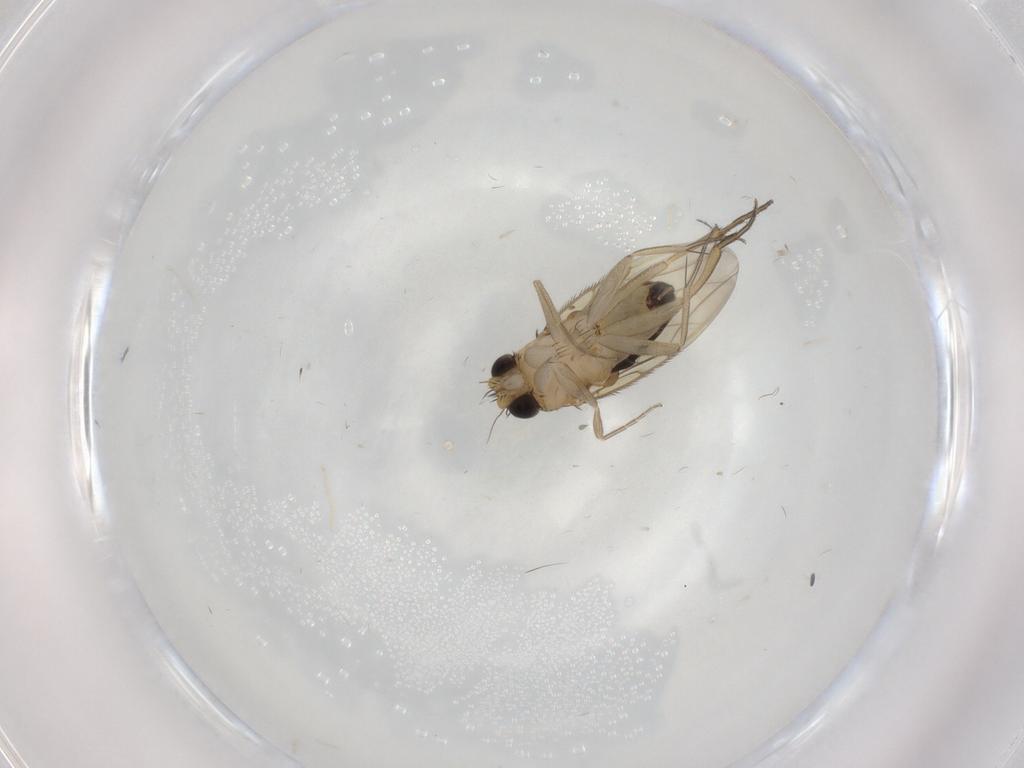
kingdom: Animalia
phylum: Arthropoda
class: Insecta
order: Diptera
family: Phoridae
